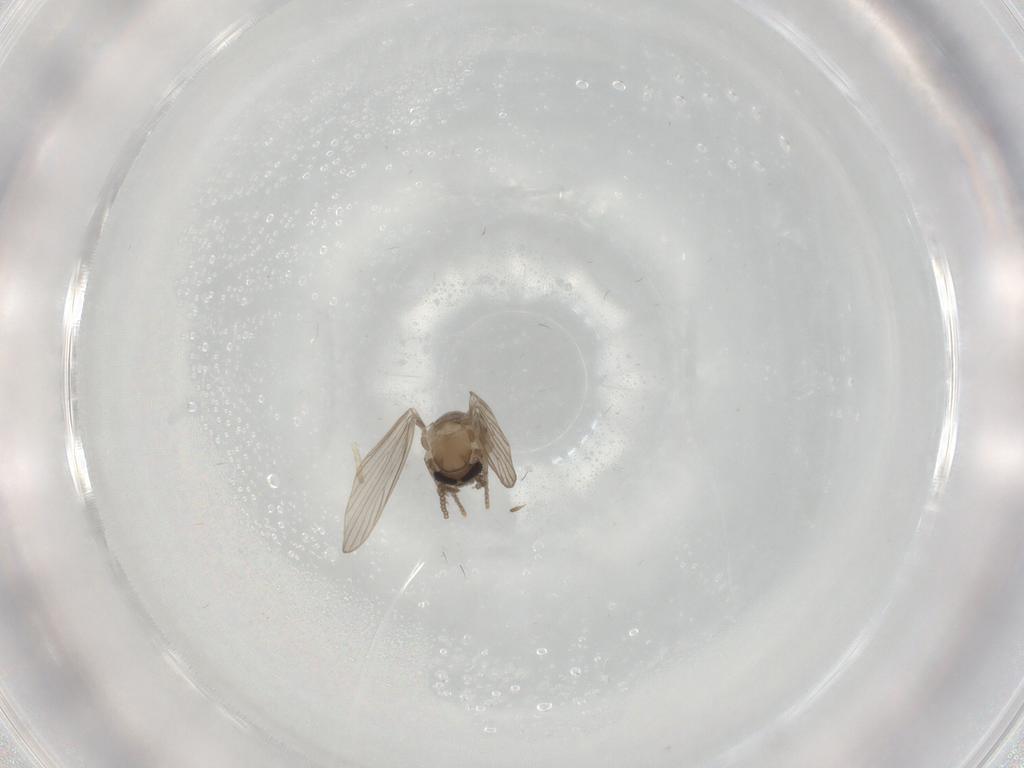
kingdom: Animalia
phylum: Arthropoda
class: Insecta
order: Diptera
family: Psychodidae
